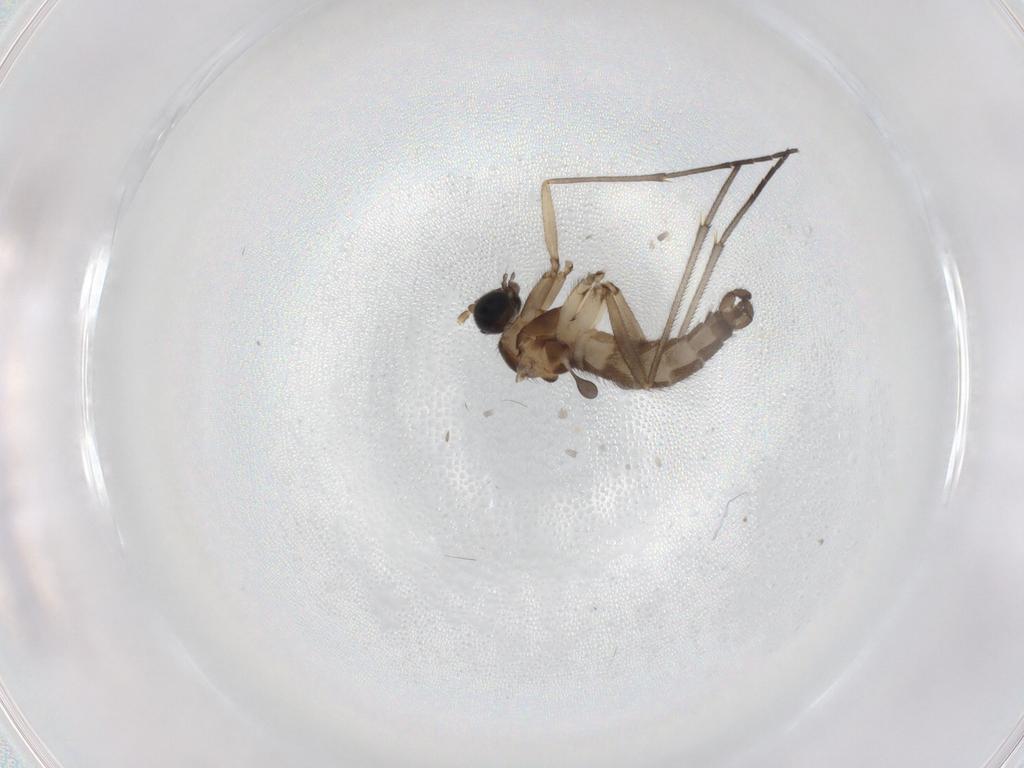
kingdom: Animalia
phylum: Arthropoda
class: Insecta
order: Diptera
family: Sciaridae
